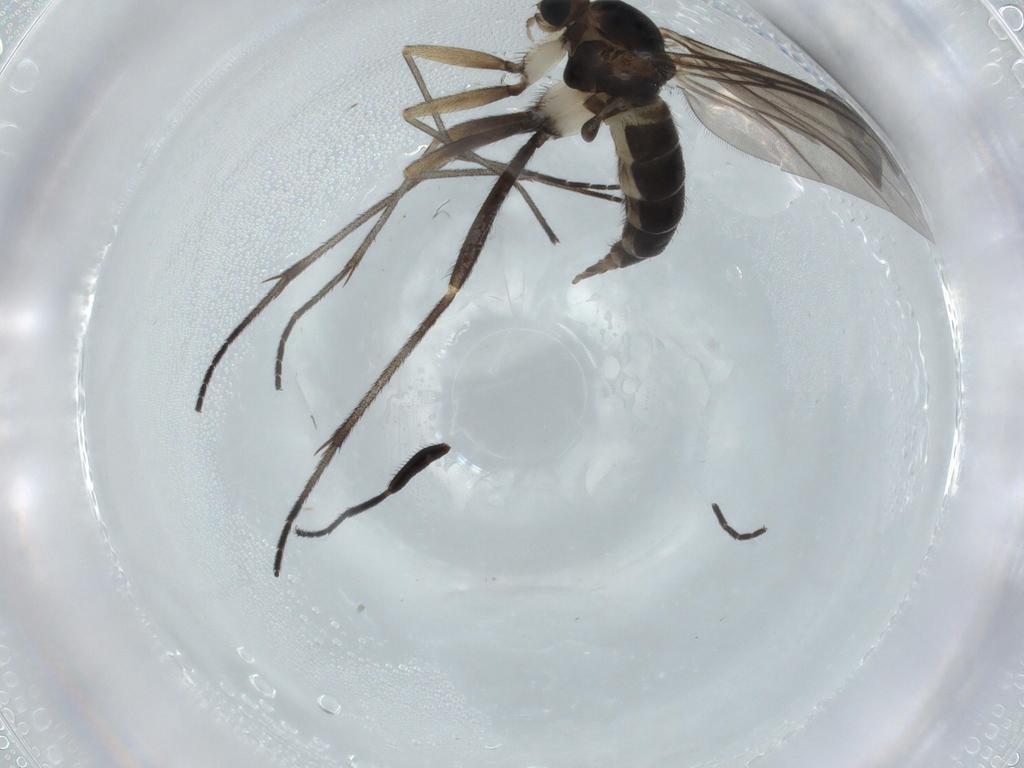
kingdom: Animalia
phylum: Arthropoda
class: Insecta
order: Diptera
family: Sciaridae
